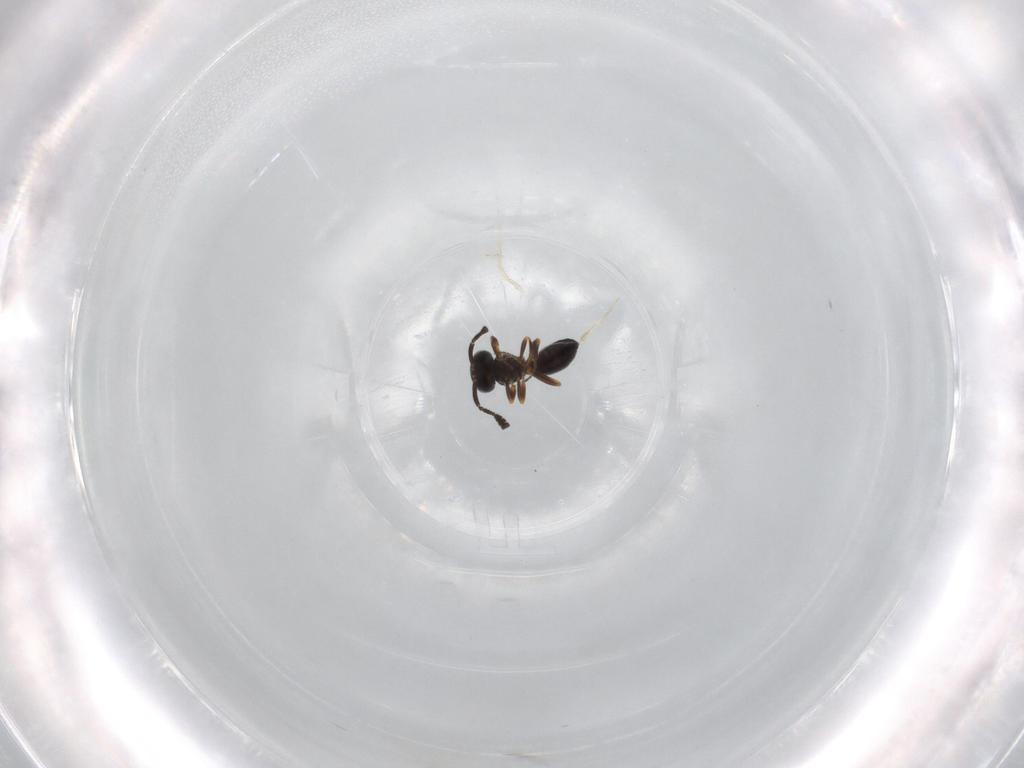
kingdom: Animalia
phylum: Arthropoda
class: Insecta
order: Hymenoptera
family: Scelionidae
